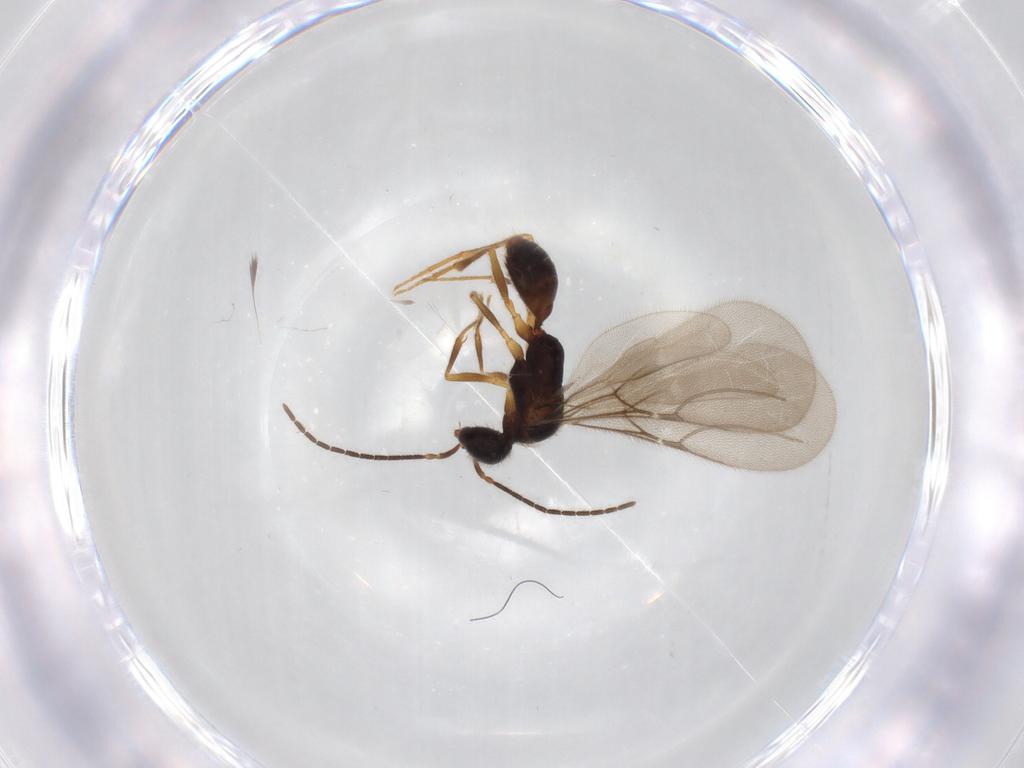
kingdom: Animalia
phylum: Arthropoda
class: Insecta
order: Hymenoptera
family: Bethylidae
